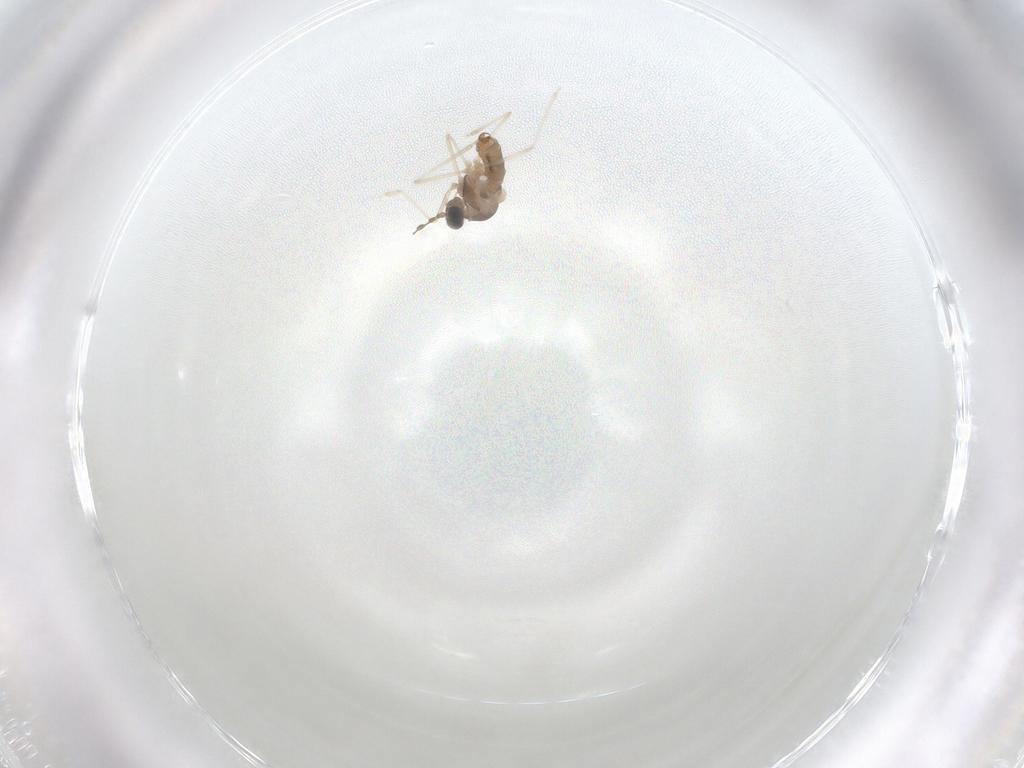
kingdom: Animalia
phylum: Arthropoda
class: Insecta
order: Diptera
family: Cecidomyiidae
